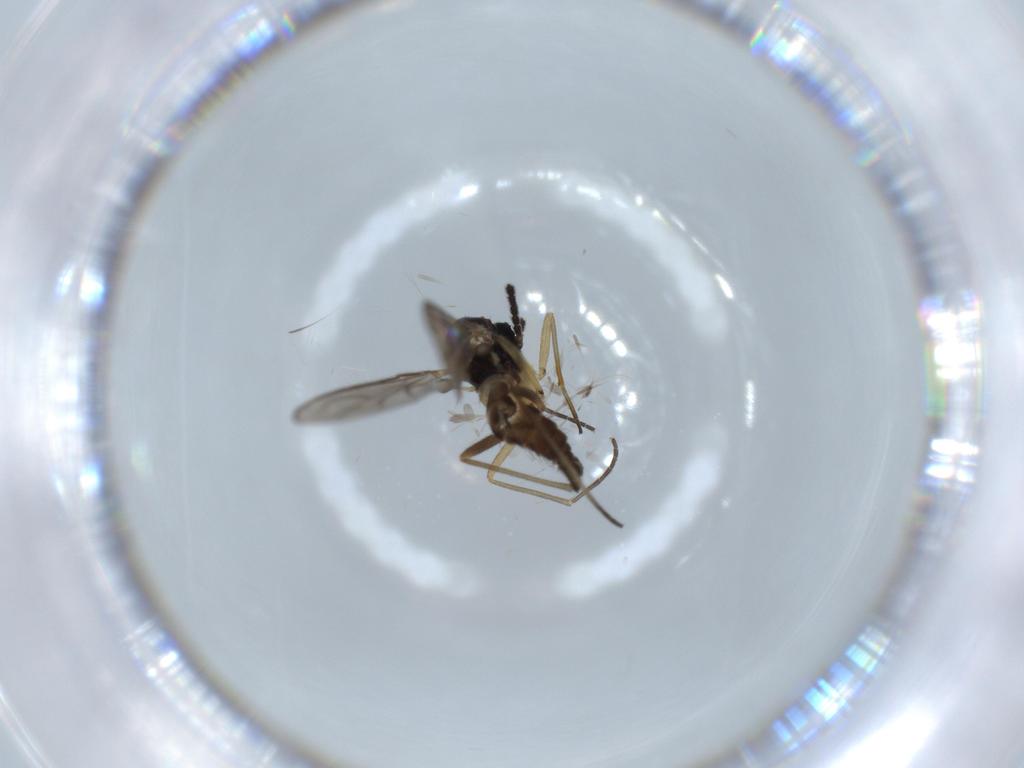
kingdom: Animalia
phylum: Arthropoda
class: Insecta
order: Diptera
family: Sciaridae
